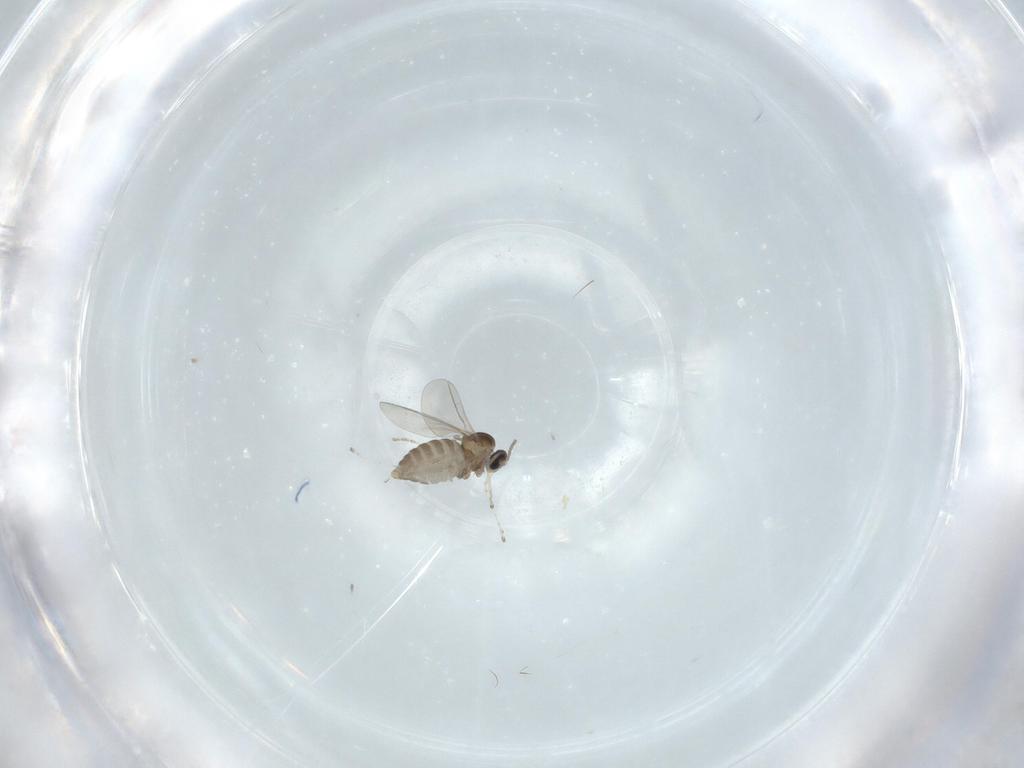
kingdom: Animalia
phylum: Arthropoda
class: Insecta
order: Diptera
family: Cecidomyiidae
